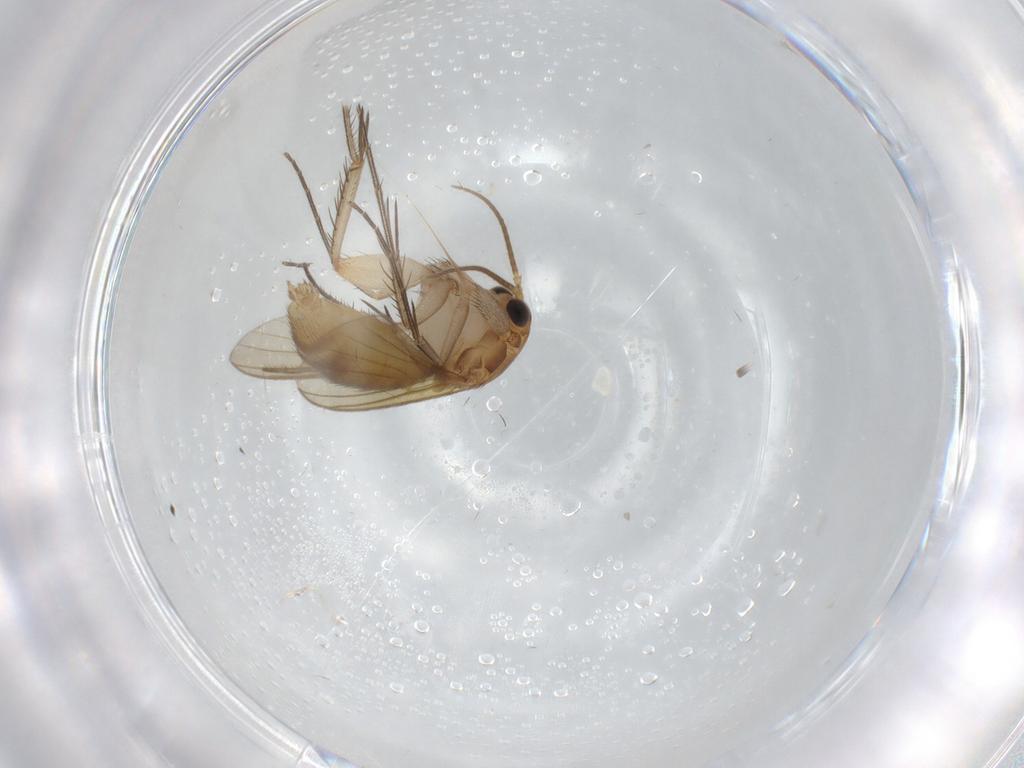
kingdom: Animalia
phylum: Arthropoda
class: Insecta
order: Diptera
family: Mycetophilidae
